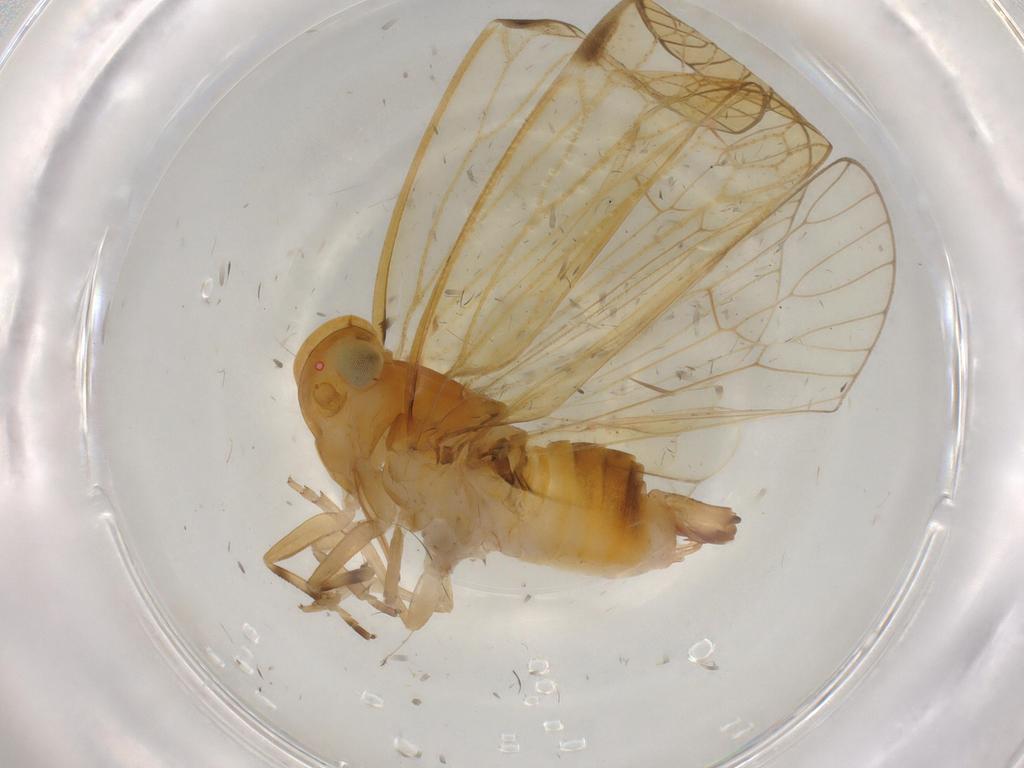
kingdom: Animalia
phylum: Arthropoda
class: Insecta
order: Hemiptera
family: Cixiidae
